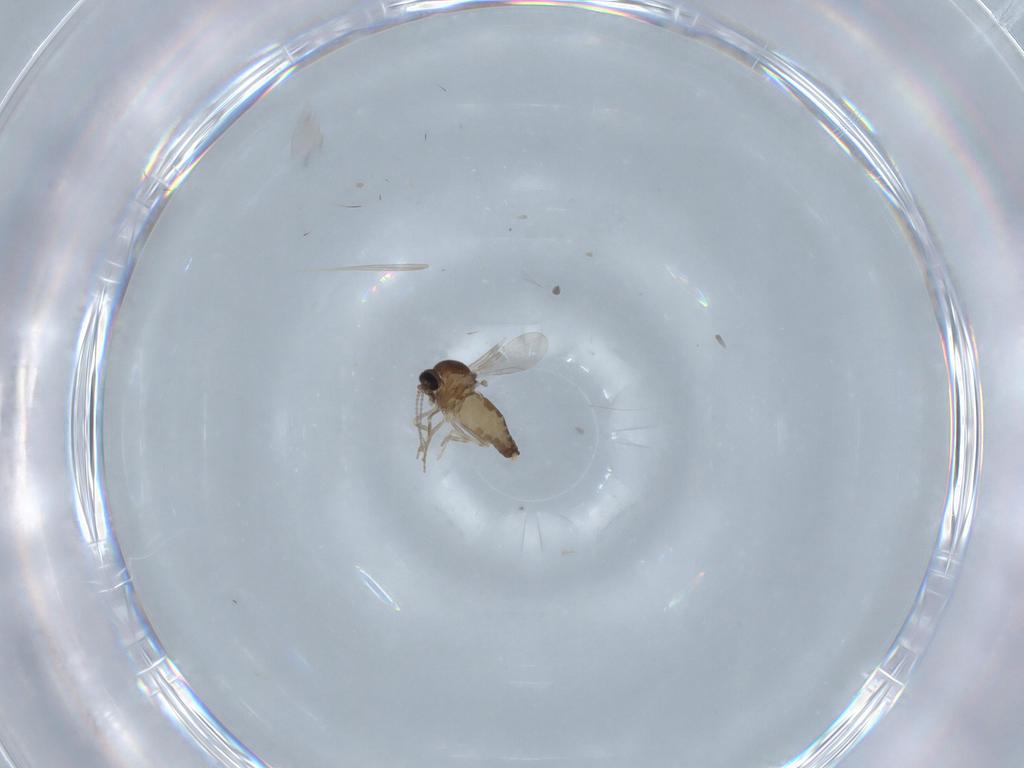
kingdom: Animalia
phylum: Arthropoda
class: Insecta
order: Diptera
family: Ceratopogonidae
